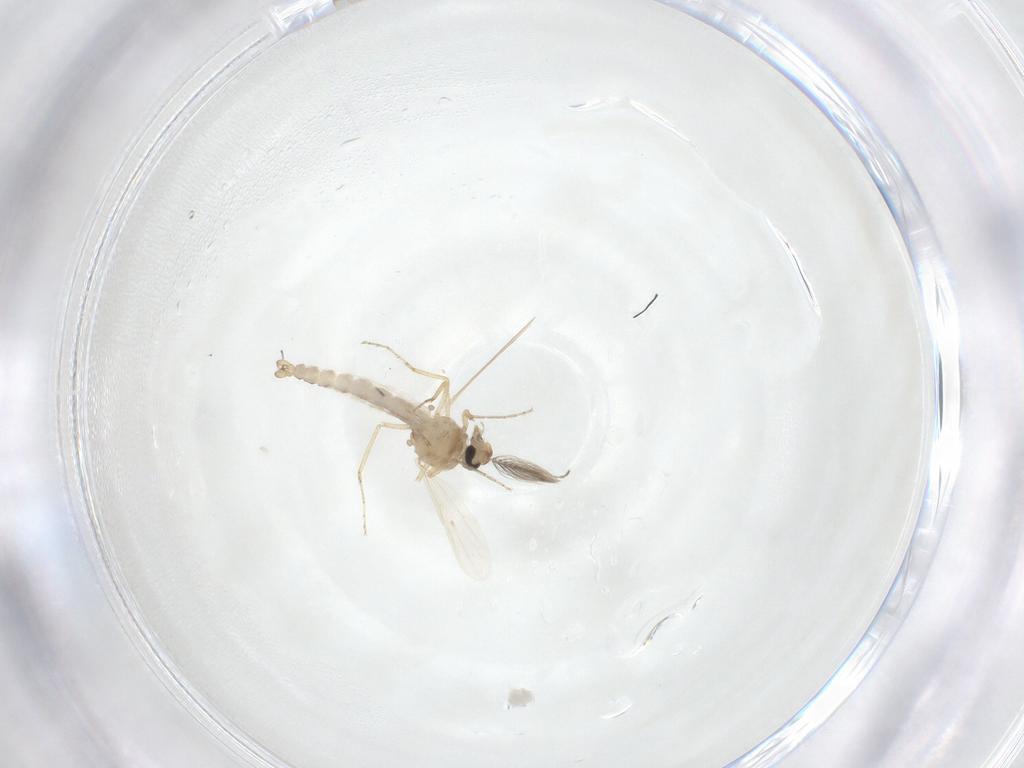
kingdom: Animalia
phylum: Arthropoda
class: Insecta
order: Diptera
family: Ceratopogonidae
